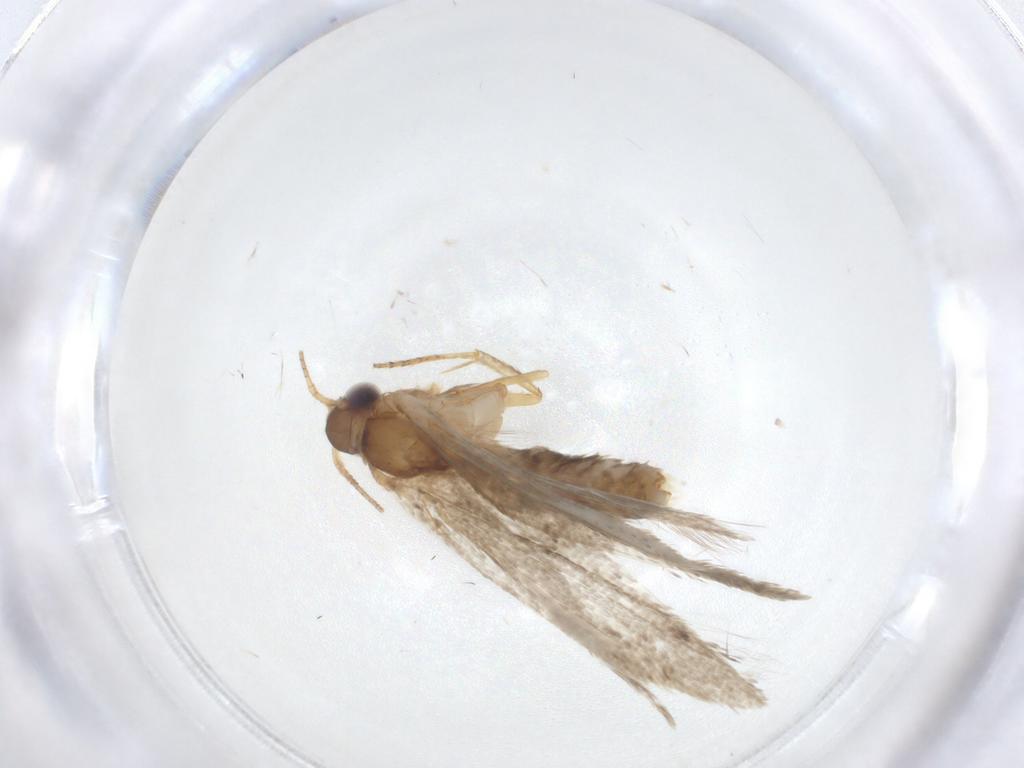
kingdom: Animalia
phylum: Arthropoda
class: Insecta
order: Lepidoptera
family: Blastobasidae
